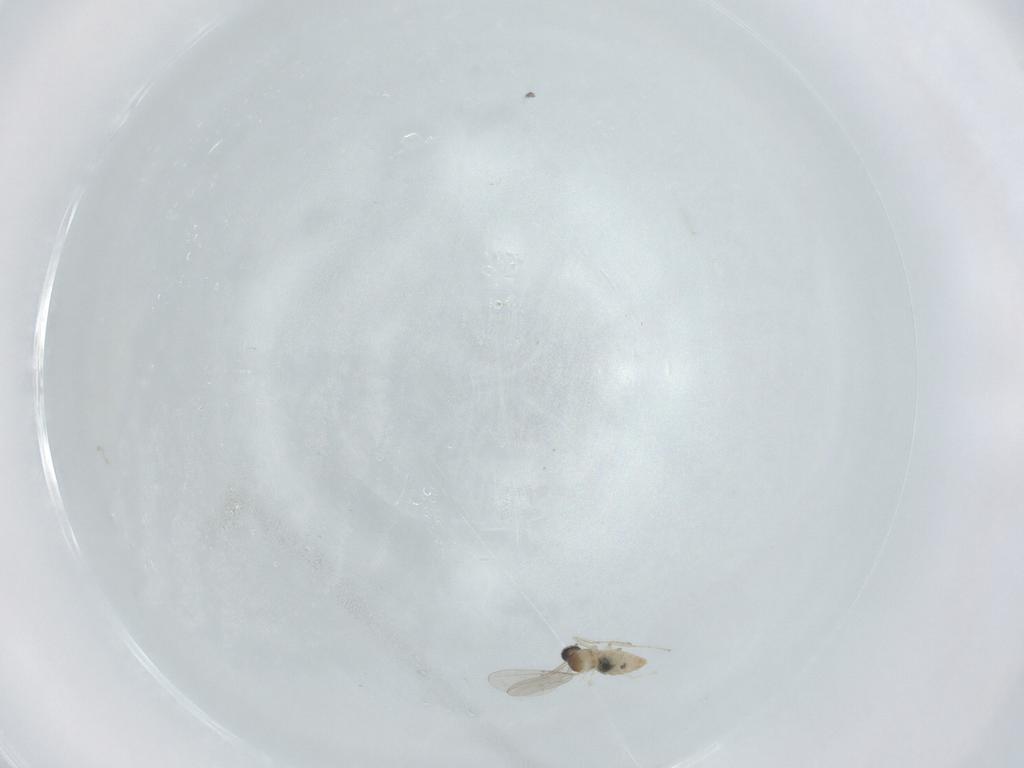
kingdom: Animalia
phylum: Arthropoda
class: Insecta
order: Diptera
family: Cecidomyiidae
